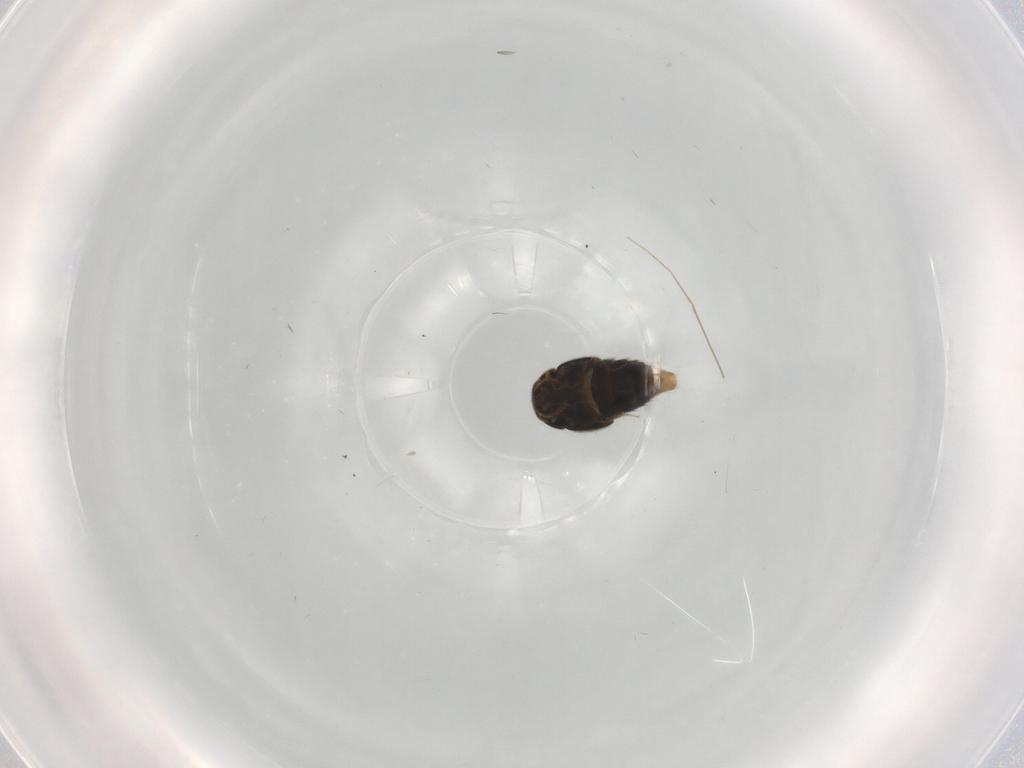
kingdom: Animalia
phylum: Arthropoda
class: Insecta
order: Coleoptera
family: Staphylinidae
